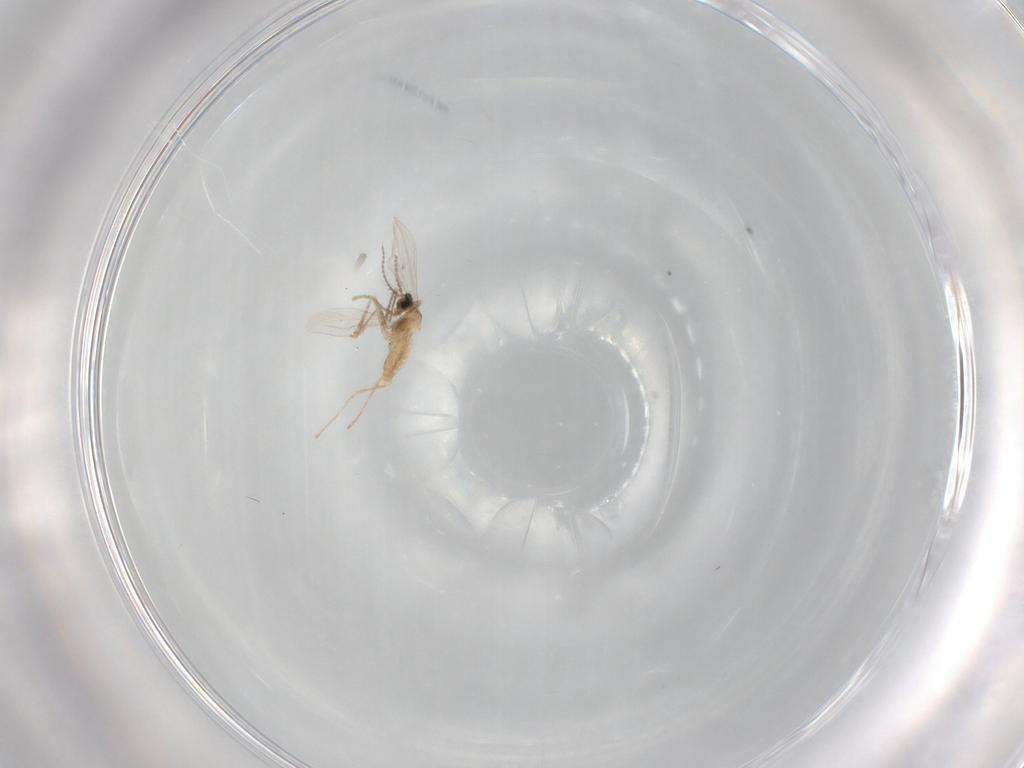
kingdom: Animalia
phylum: Arthropoda
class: Insecta
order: Diptera
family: Cecidomyiidae
